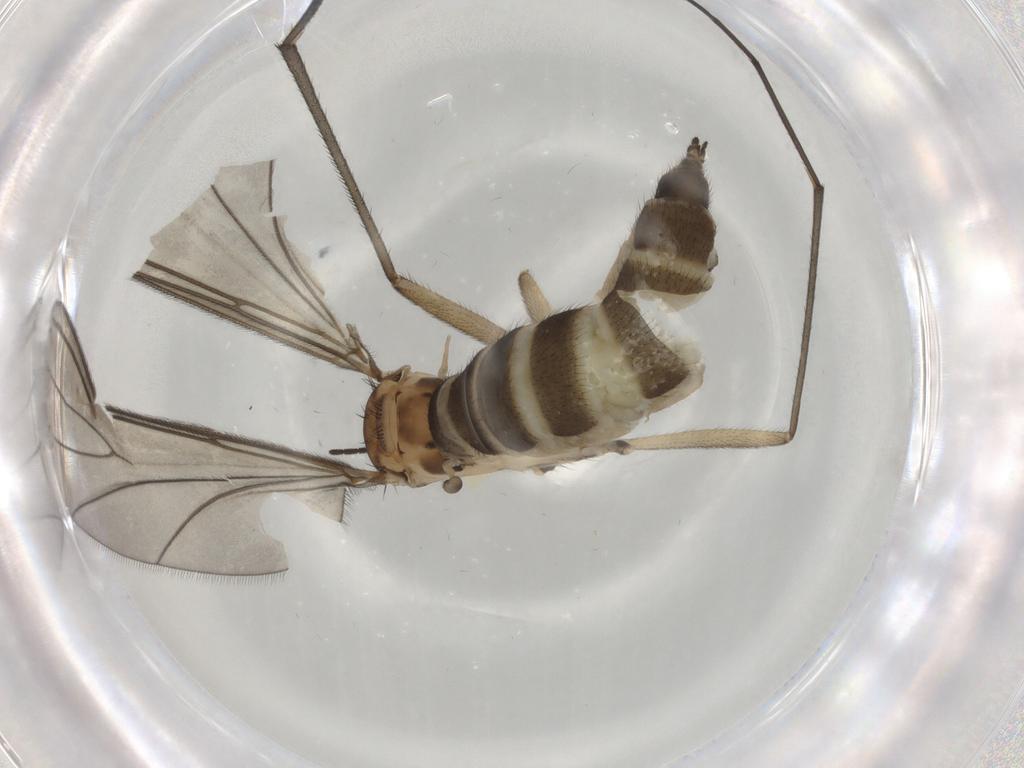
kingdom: Animalia
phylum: Arthropoda
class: Insecta
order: Diptera
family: Sciaridae
